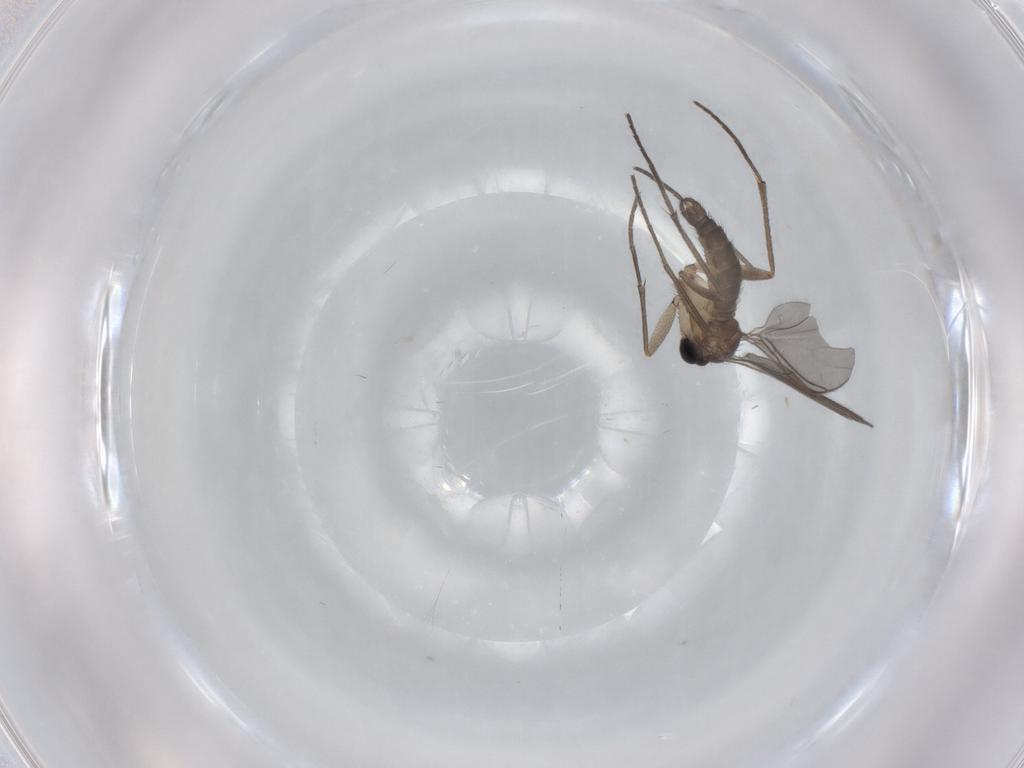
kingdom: Animalia
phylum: Arthropoda
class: Insecta
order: Diptera
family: Sciaridae
